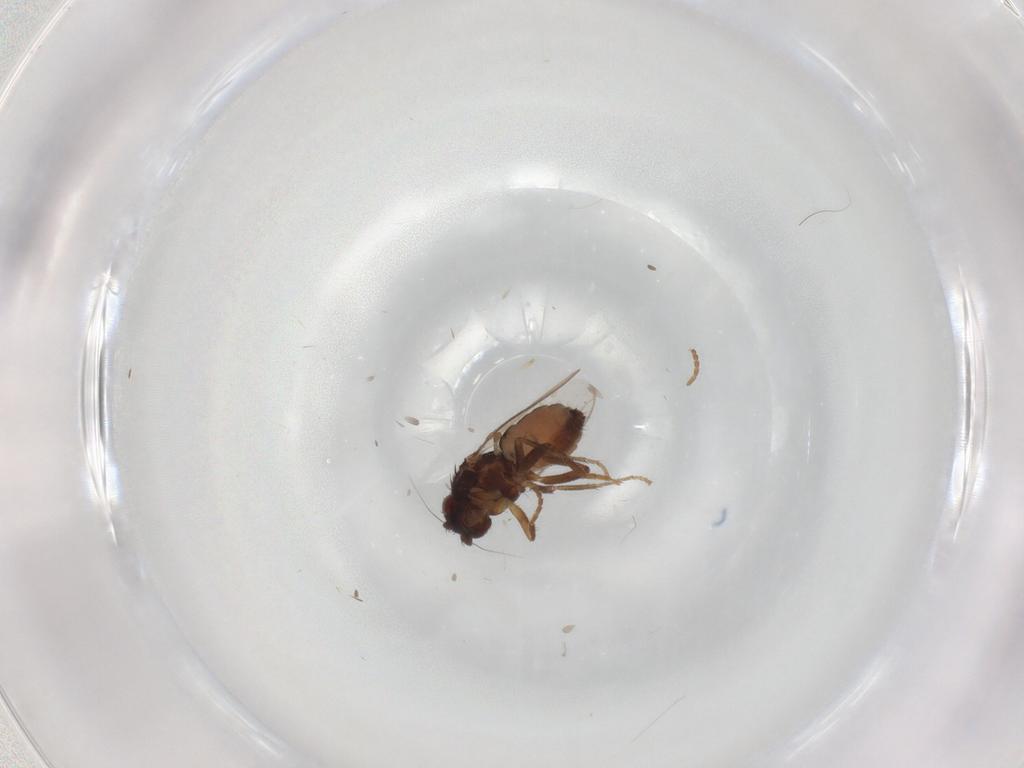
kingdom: Animalia
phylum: Arthropoda
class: Insecta
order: Diptera
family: Sphaeroceridae
